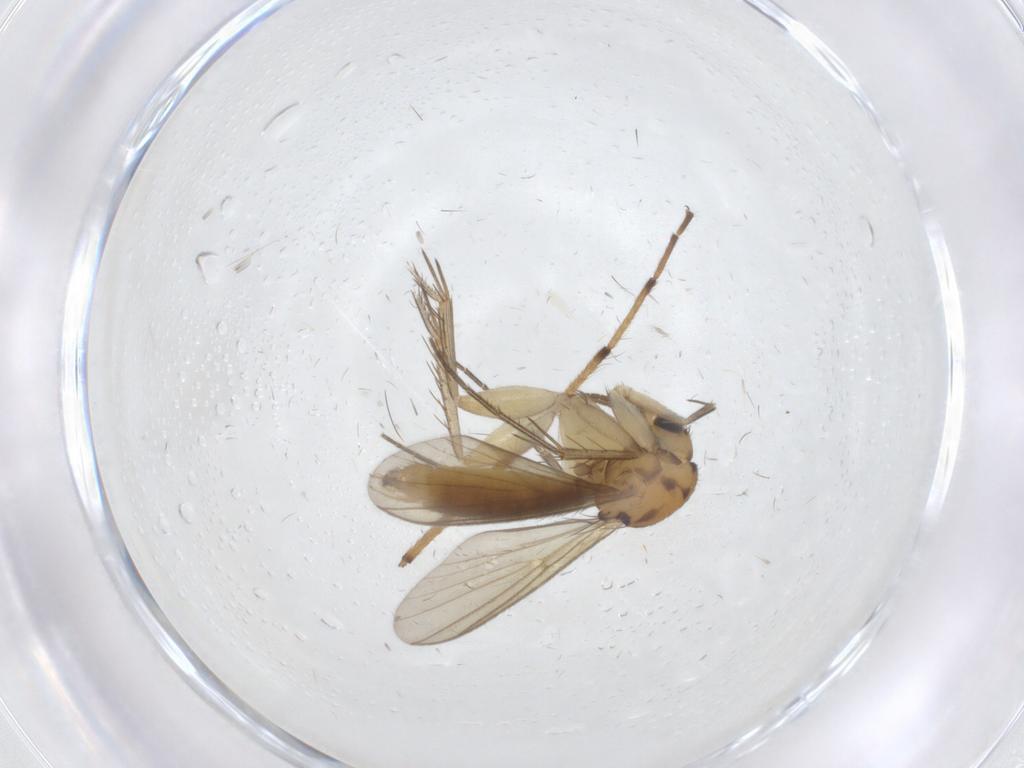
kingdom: Animalia
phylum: Arthropoda
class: Insecta
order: Diptera
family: Mycetophilidae
